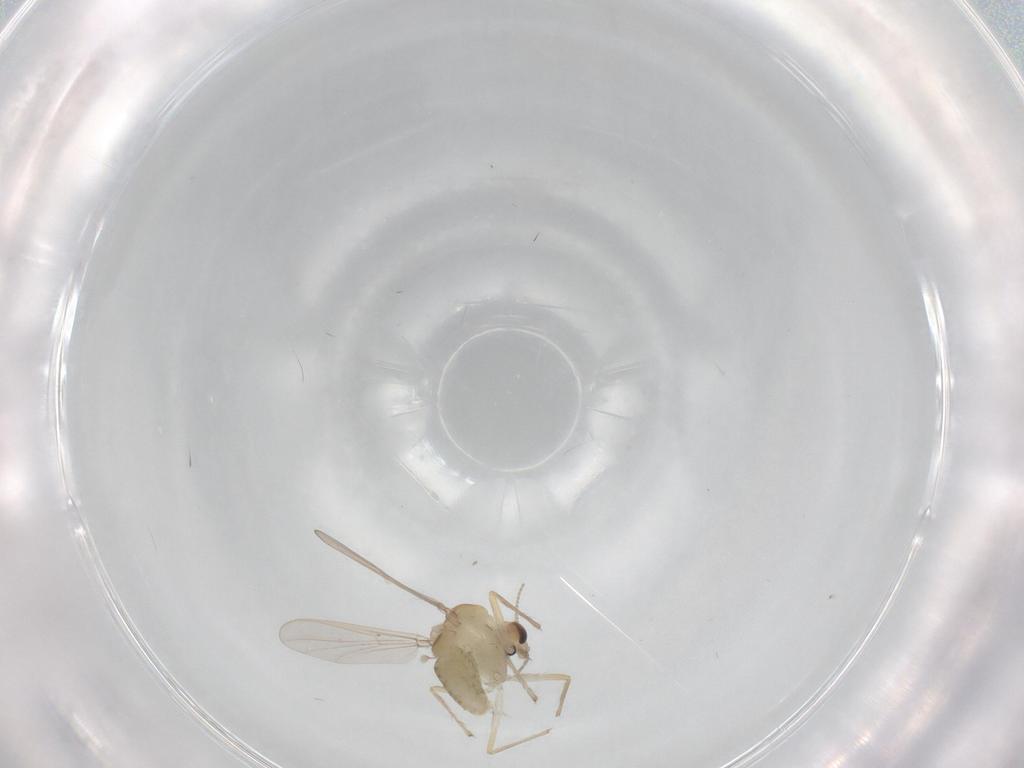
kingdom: Animalia
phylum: Arthropoda
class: Insecta
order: Diptera
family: Chironomidae
